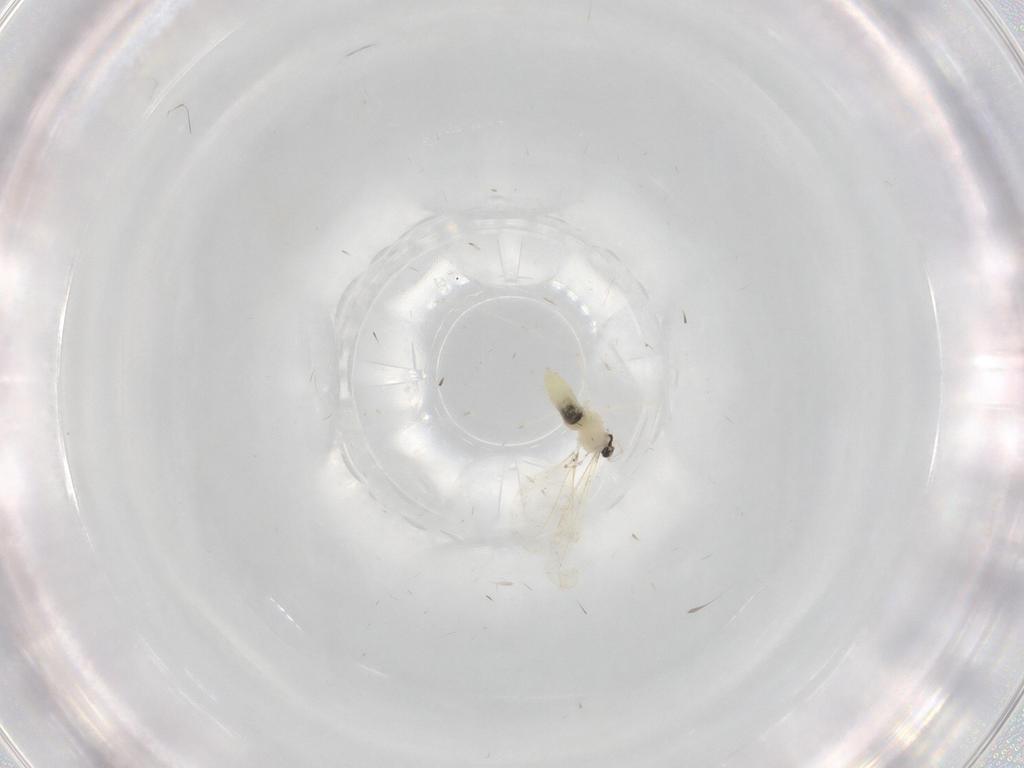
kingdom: Animalia
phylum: Arthropoda
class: Insecta
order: Diptera
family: Cecidomyiidae
